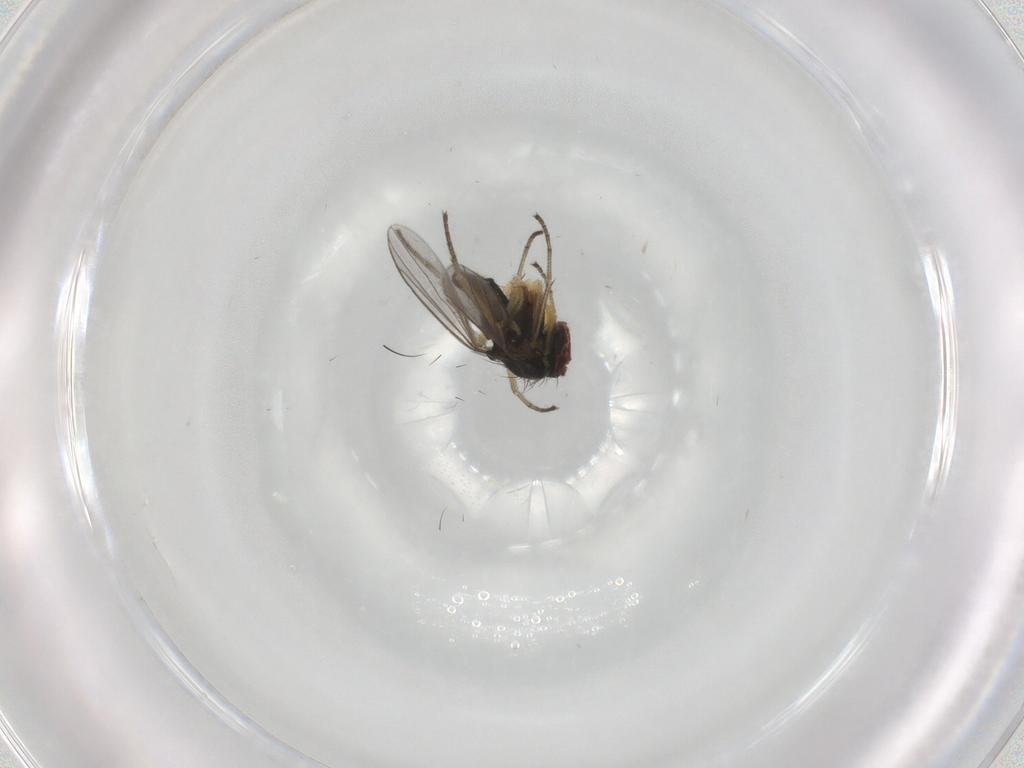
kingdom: Animalia
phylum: Arthropoda
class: Insecta
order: Diptera
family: Dolichopodidae
